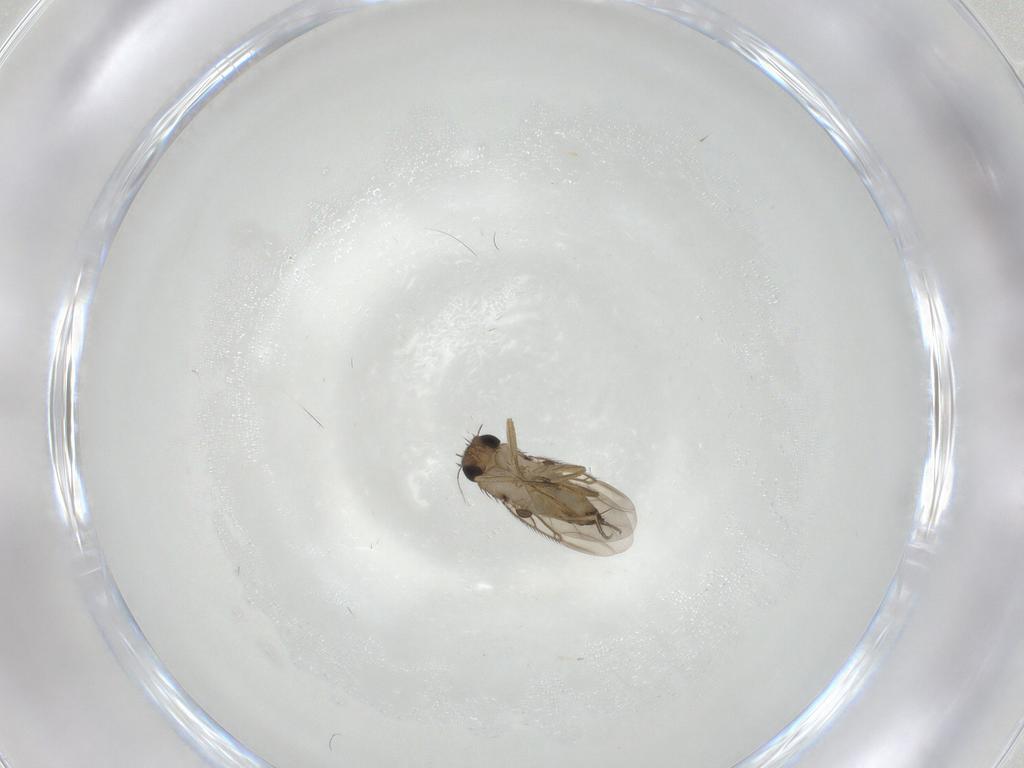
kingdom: Animalia
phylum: Arthropoda
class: Insecta
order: Diptera
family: Phoridae
